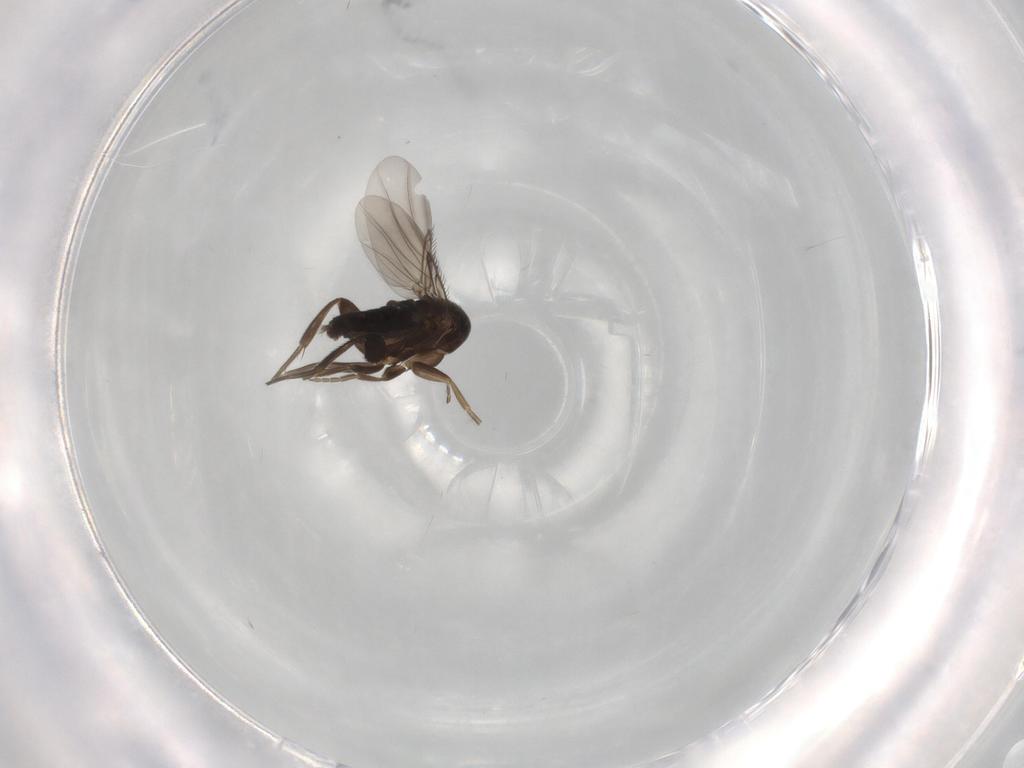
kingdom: Animalia
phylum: Arthropoda
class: Insecta
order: Diptera
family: Phoridae
